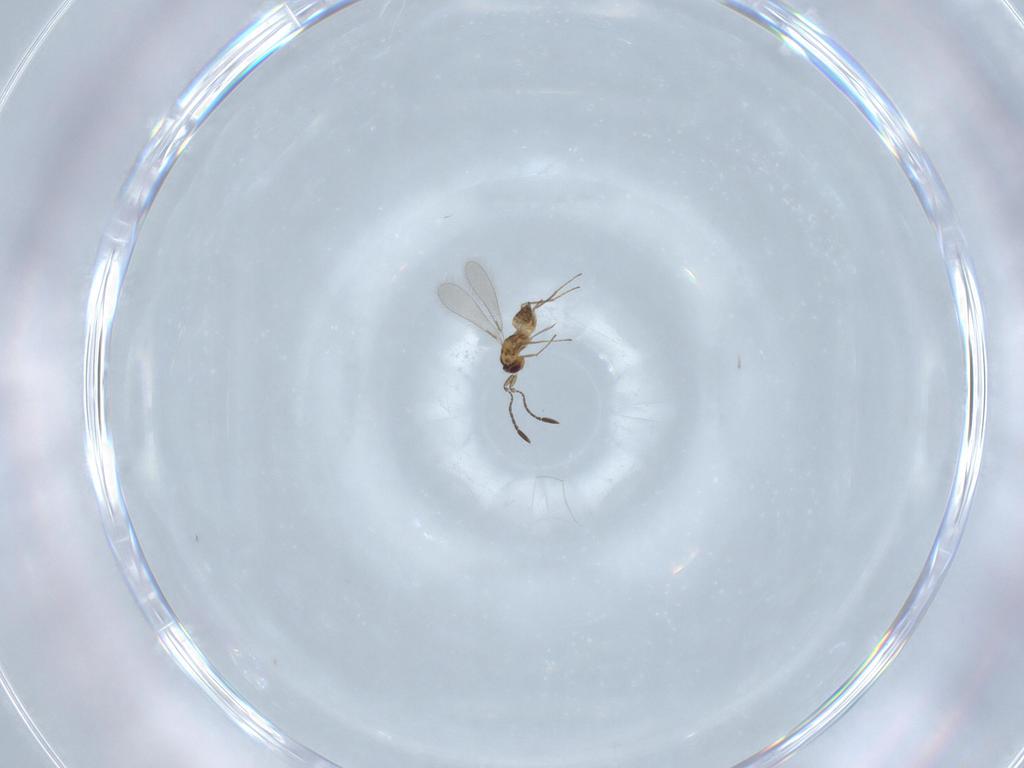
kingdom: Animalia
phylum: Arthropoda
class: Insecta
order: Hymenoptera
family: Mymaridae
